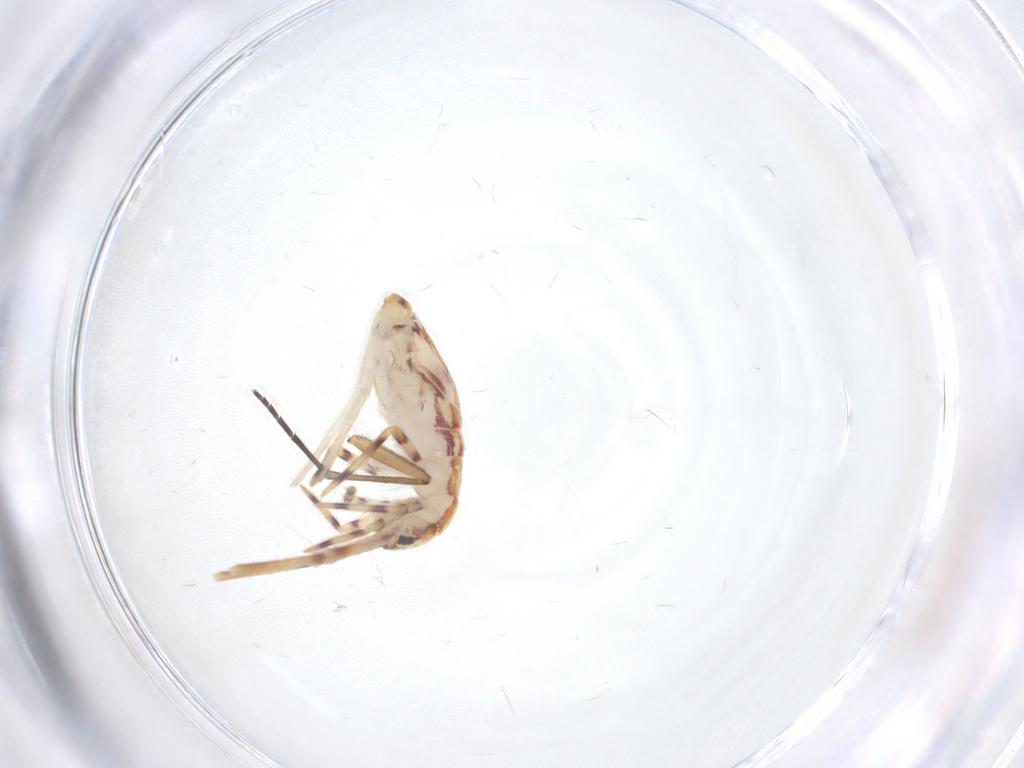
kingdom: Animalia
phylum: Arthropoda
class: Collembola
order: Entomobryomorpha
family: Entomobryidae
